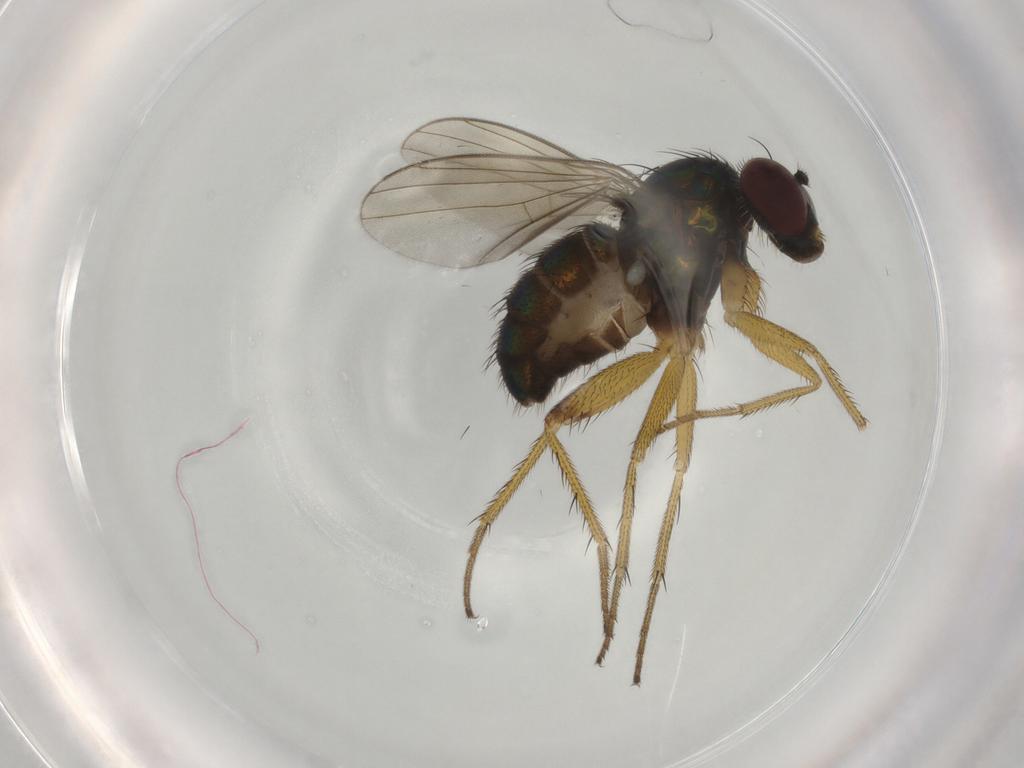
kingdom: Animalia
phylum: Arthropoda
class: Insecta
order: Diptera
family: Dolichopodidae
